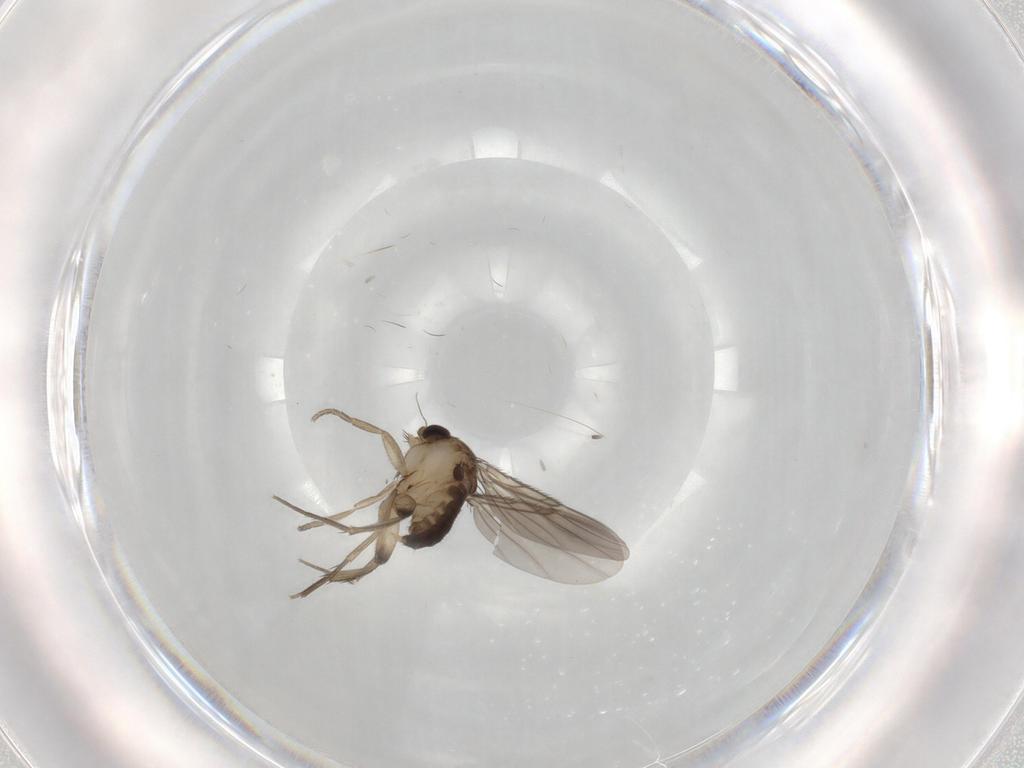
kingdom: Animalia
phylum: Arthropoda
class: Insecta
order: Diptera
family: Phoridae
